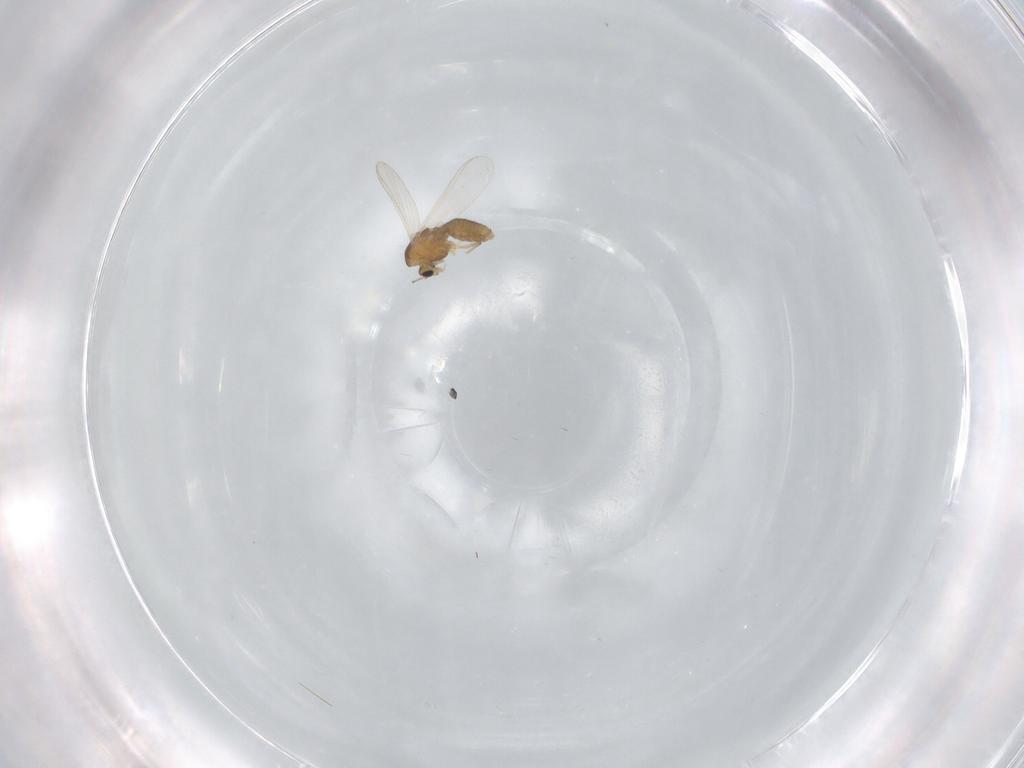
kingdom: Animalia
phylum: Arthropoda
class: Insecta
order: Diptera
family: Chironomidae
